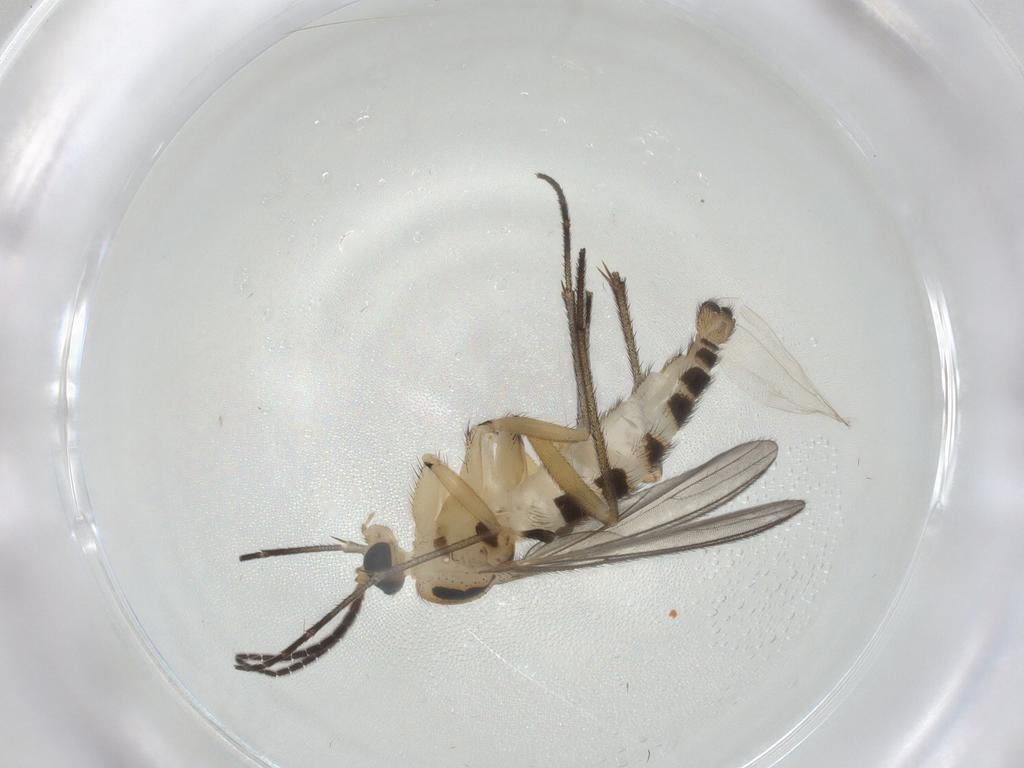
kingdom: Animalia
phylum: Arthropoda
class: Insecta
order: Diptera
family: Sciaridae
